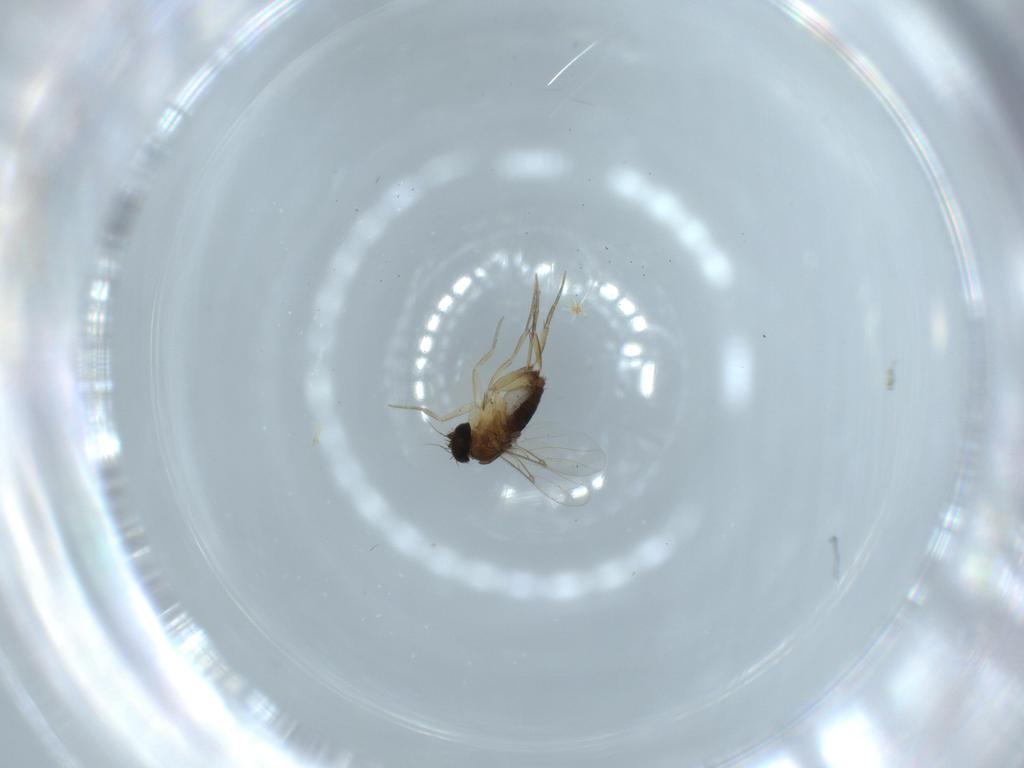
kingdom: Animalia
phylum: Arthropoda
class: Insecta
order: Diptera
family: Phoridae
